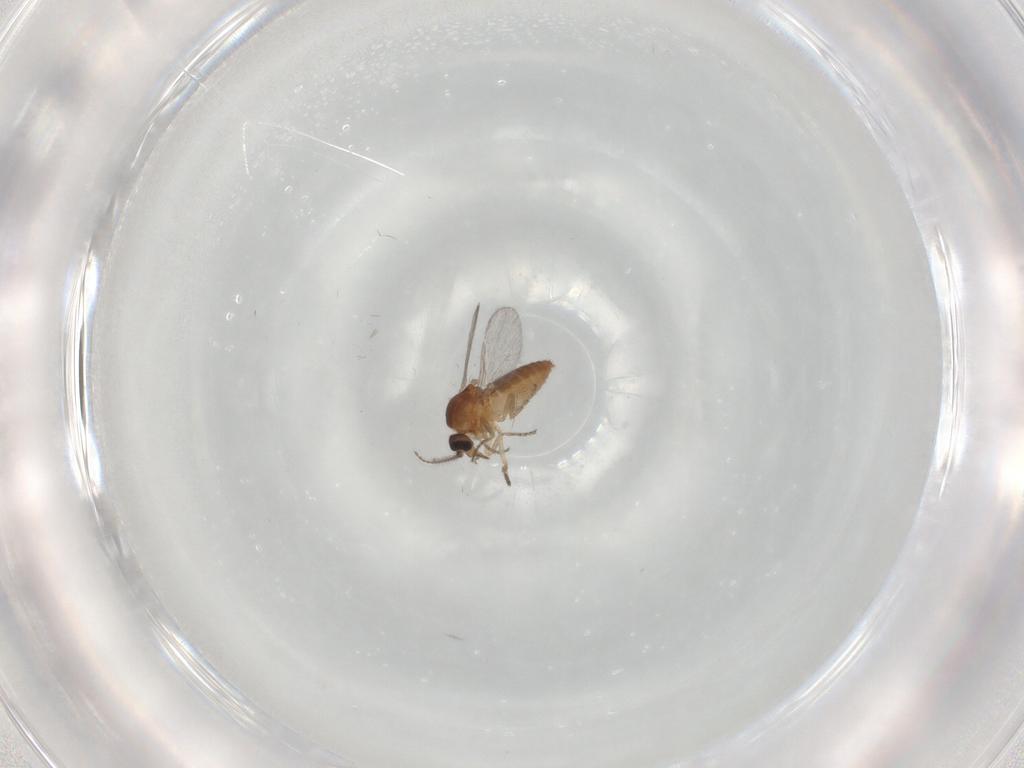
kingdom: Animalia
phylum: Arthropoda
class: Insecta
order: Diptera
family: Ceratopogonidae
